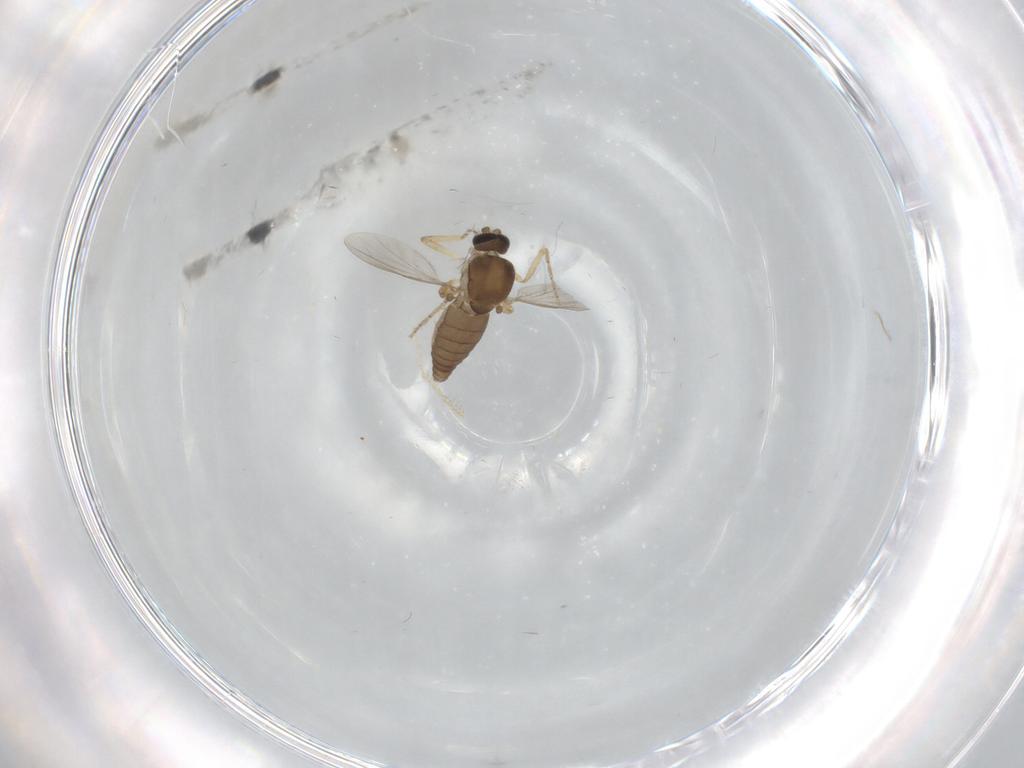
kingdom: Animalia
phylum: Arthropoda
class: Insecta
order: Diptera
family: Ceratopogonidae
